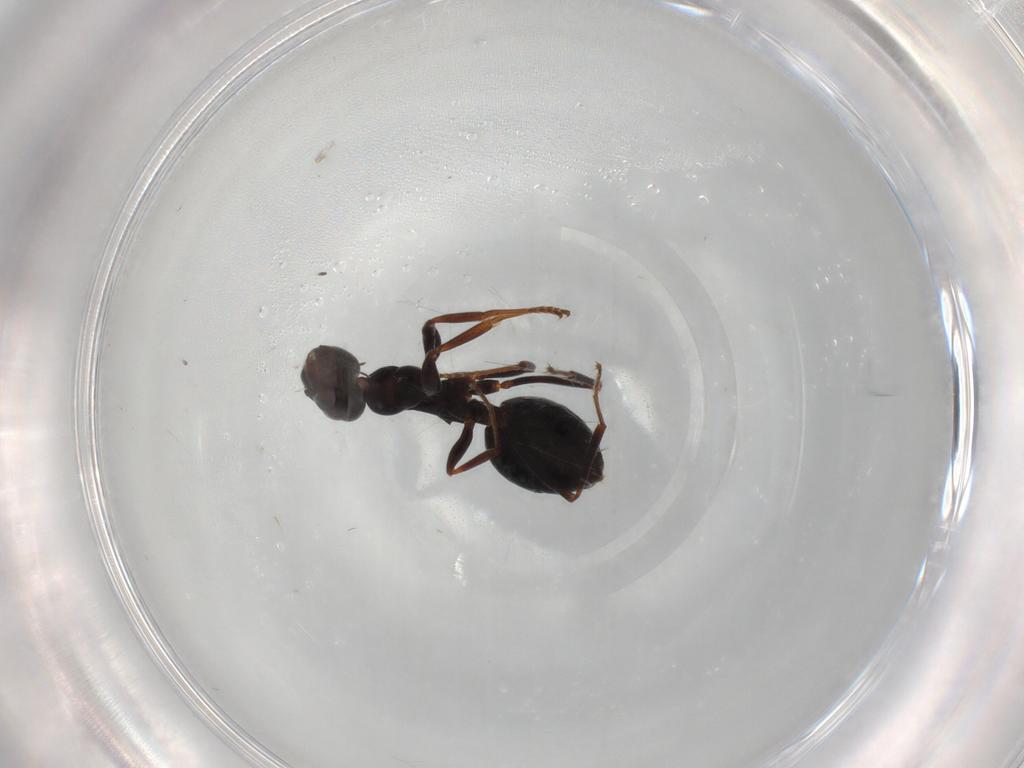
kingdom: Animalia
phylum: Arthropoda
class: Insecta
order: Hymenoptera
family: Formicidae
